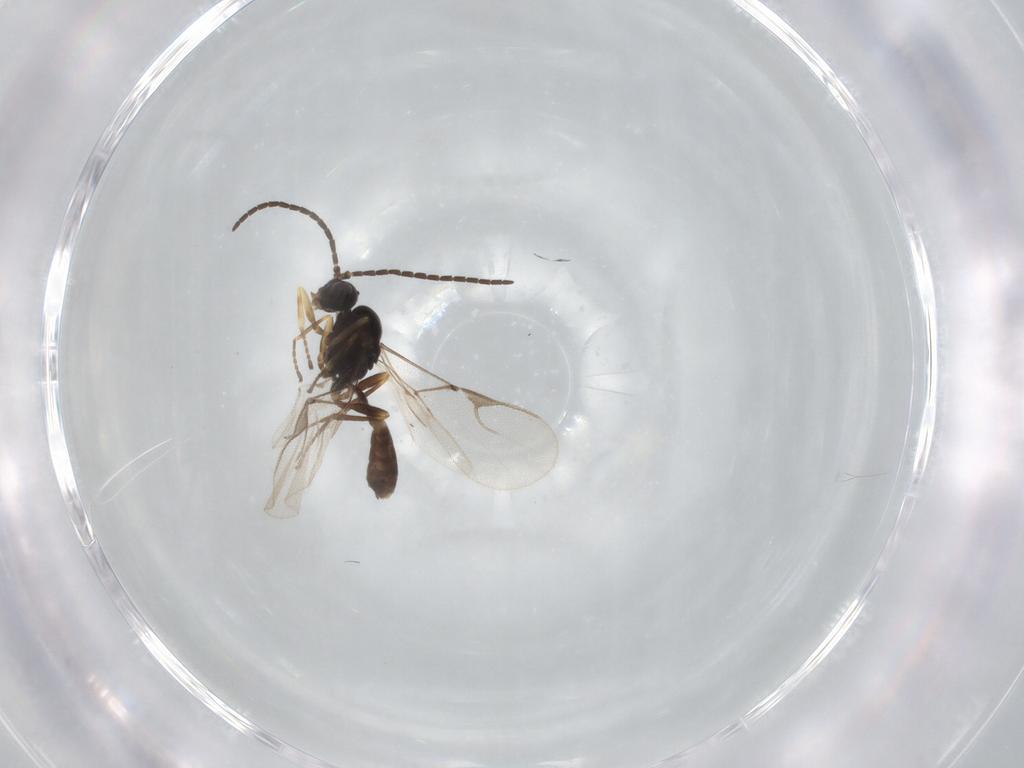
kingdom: Animalia
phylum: Arthropoda
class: Insecta
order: Hymenoptera
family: Braconidae
